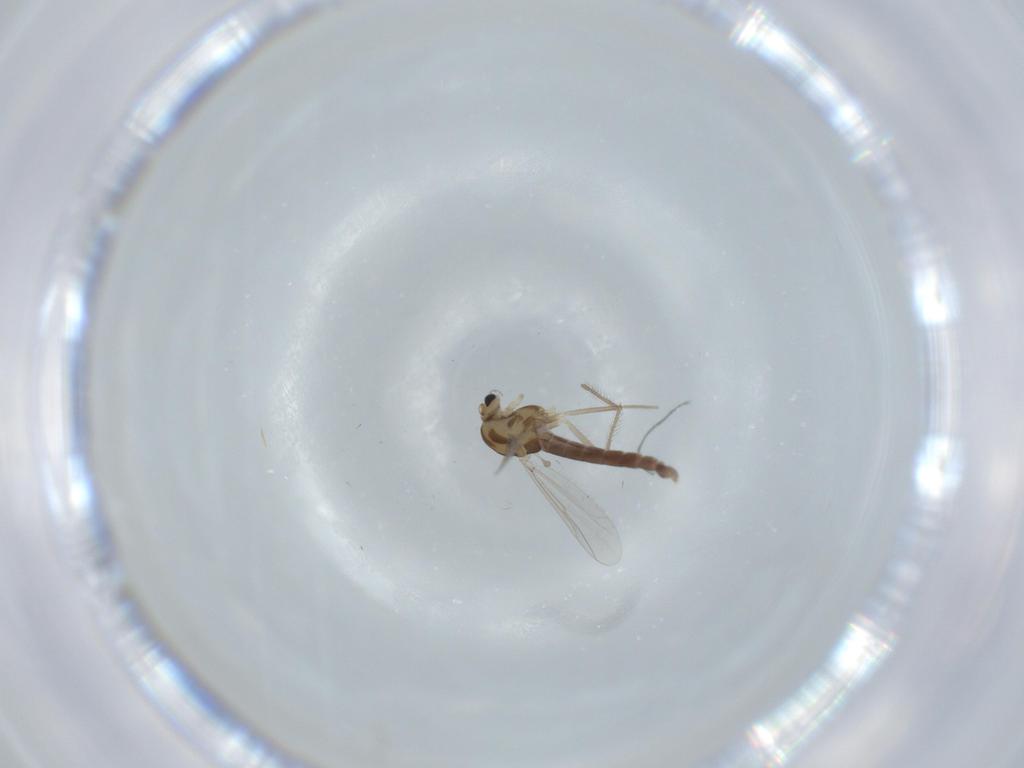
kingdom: Animalia
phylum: Arthropoda
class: Insecta
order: Diptera
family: Chironomidae
